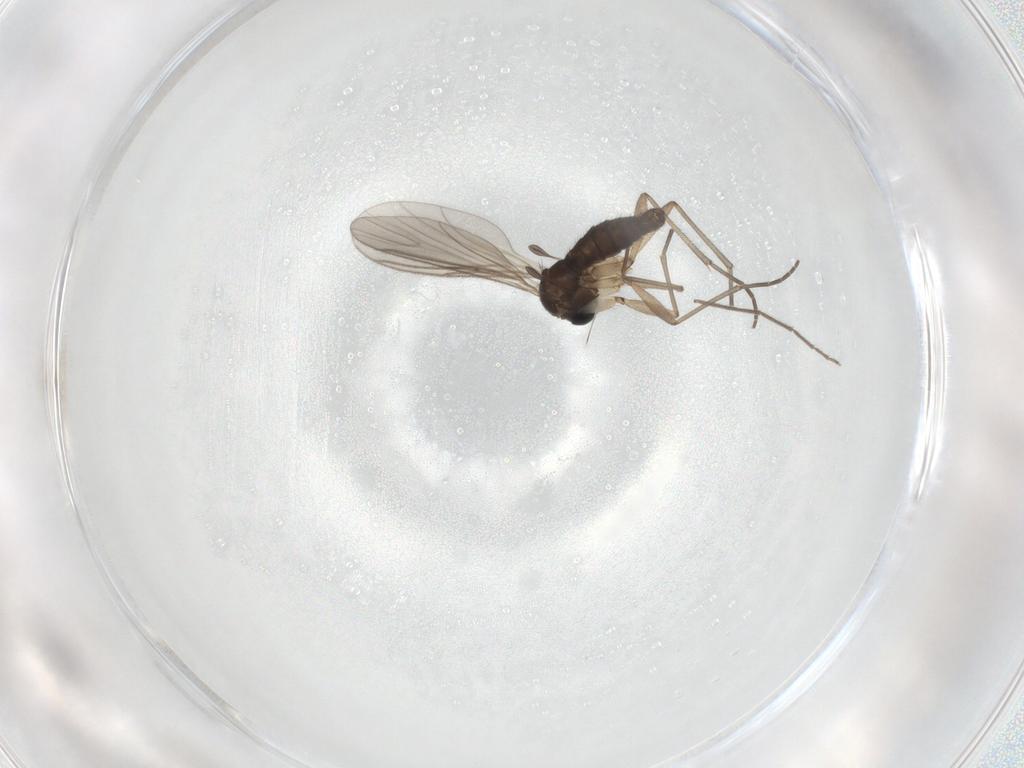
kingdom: Animalia
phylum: Arthropoda
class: Insecta
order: Diptera
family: Sciaridae
